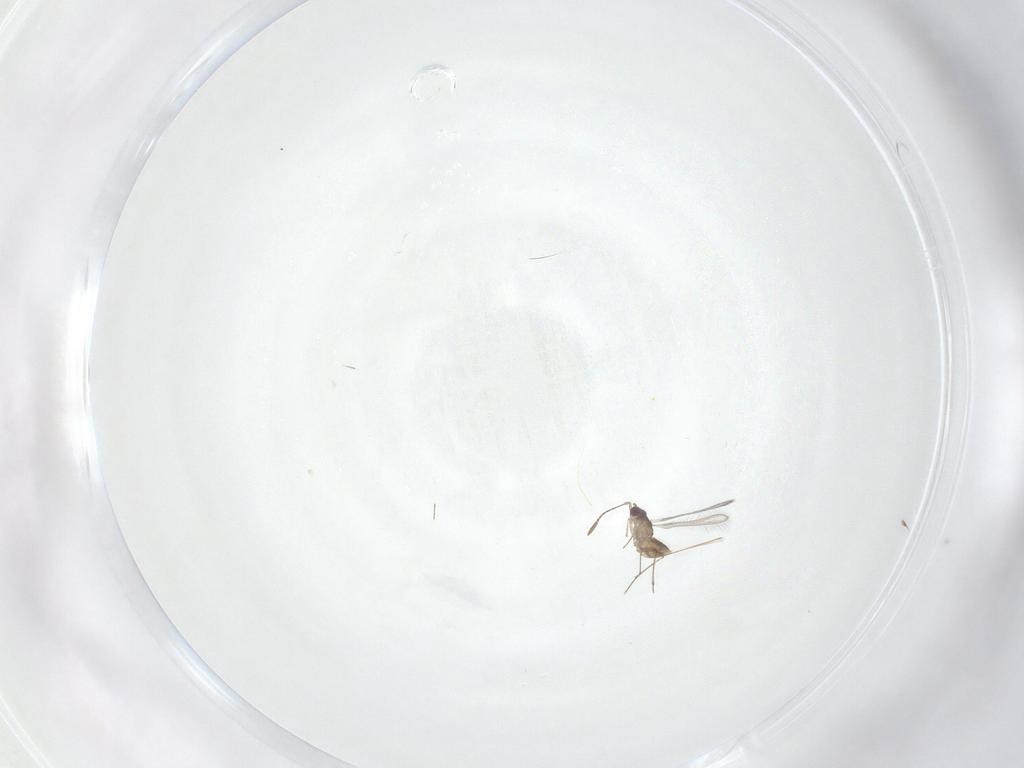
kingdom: Animalia
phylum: Arthropoda
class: Insecta
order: Hymenoptera
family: Mymaridae
